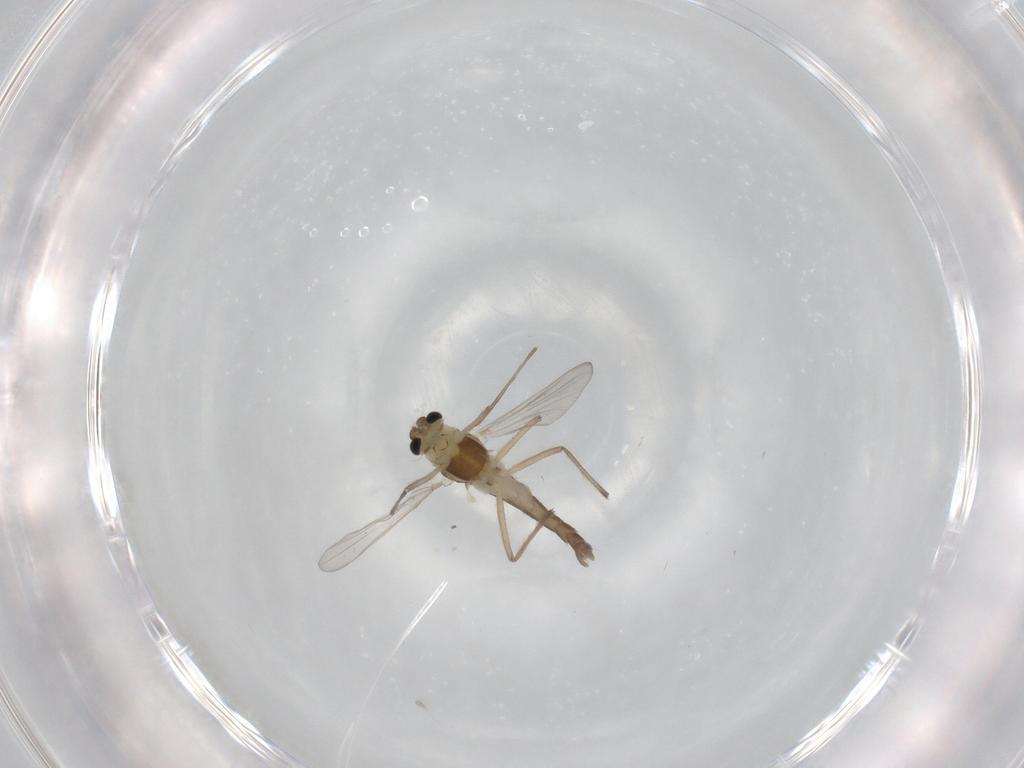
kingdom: Animalia
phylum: Arthropoda
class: Insecta
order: Diptera
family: Chironomidae
